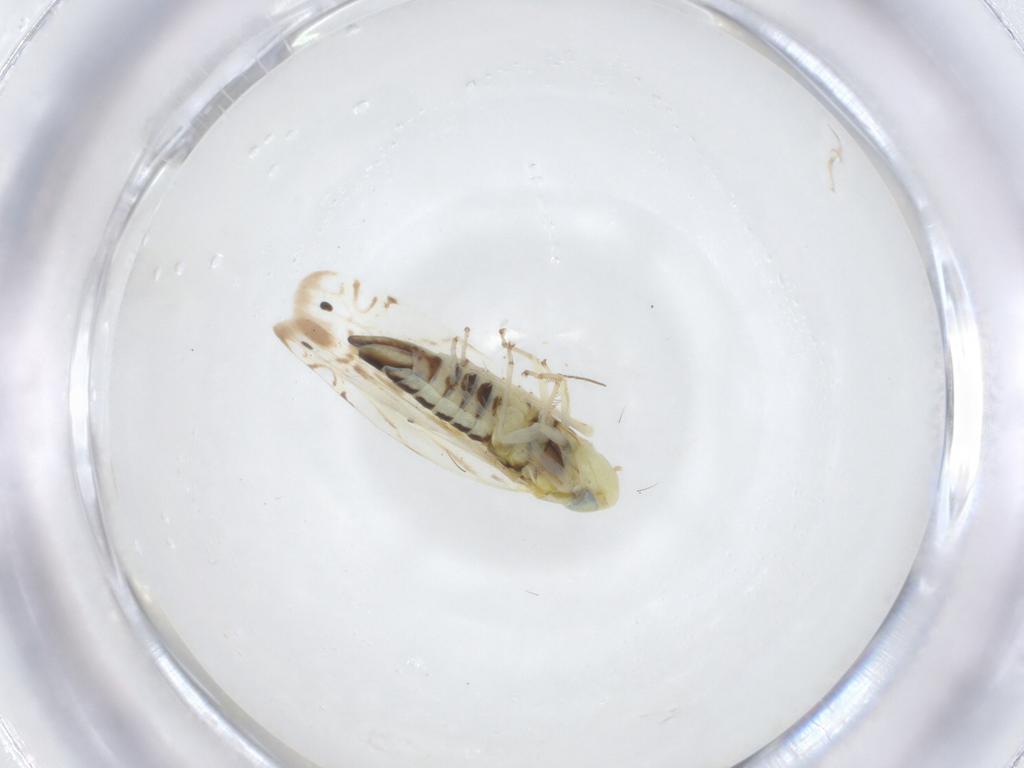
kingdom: Animalia
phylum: Arthropoda
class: Insecta
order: Hemiptera
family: Cicadellidae
